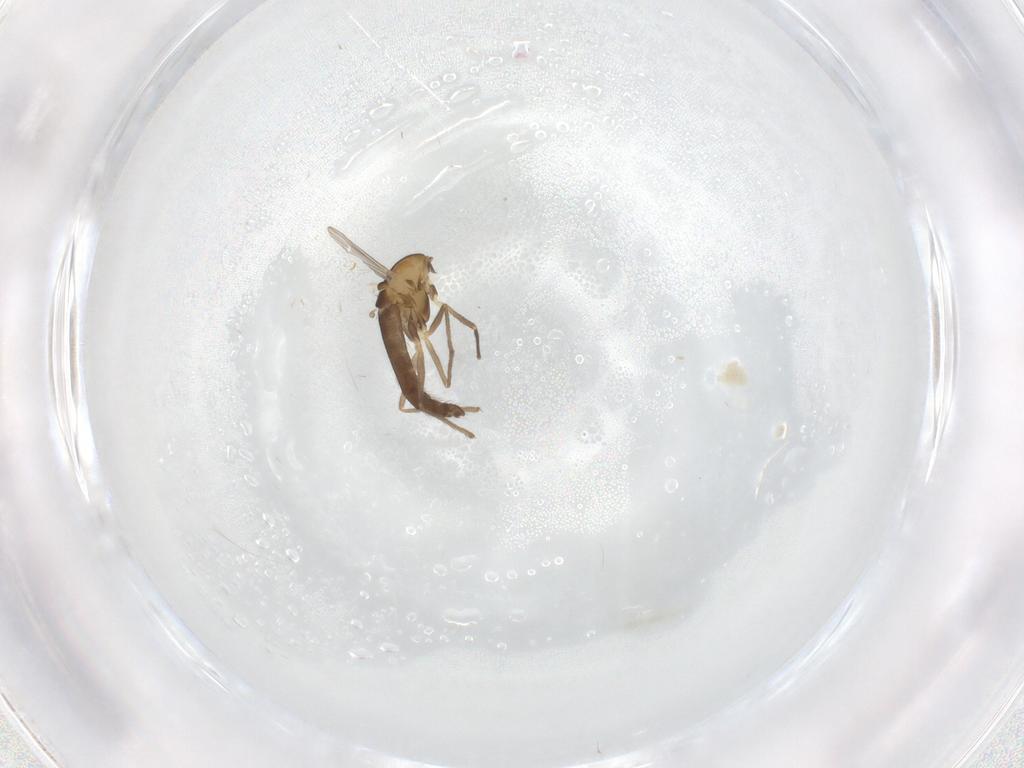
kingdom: Animalia
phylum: Arthropoda
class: Insecta
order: Diptera
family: Chironomidae
